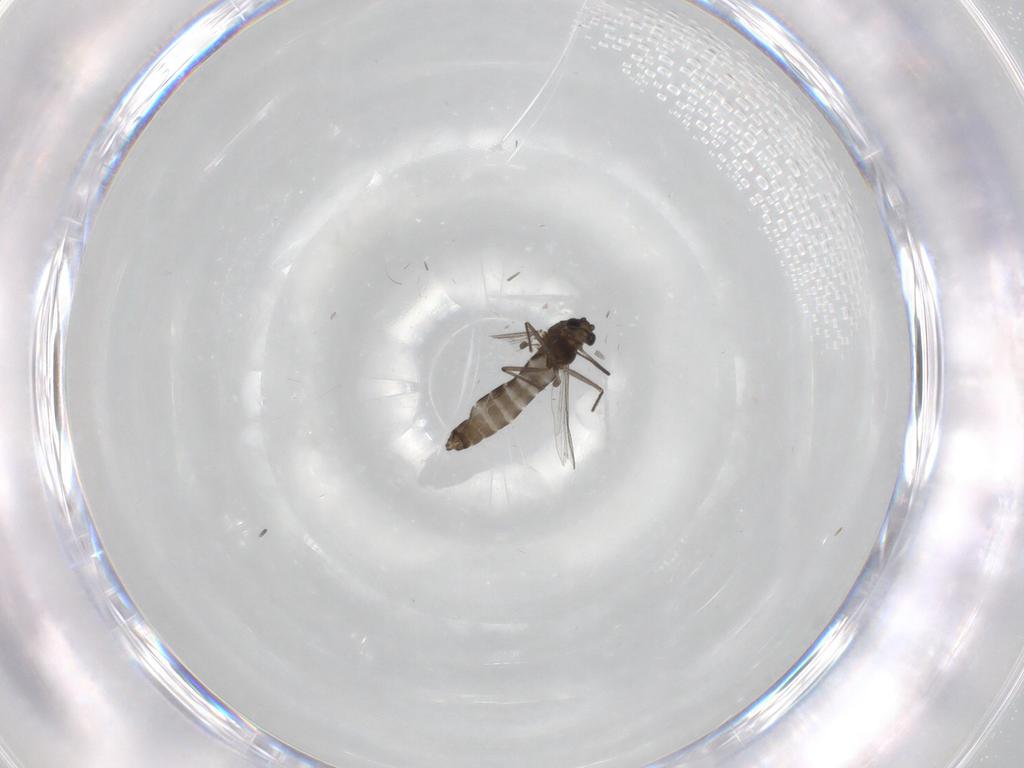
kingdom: Animalia
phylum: Arthropoda
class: Insecta
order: Diptera
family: Chironomidae
